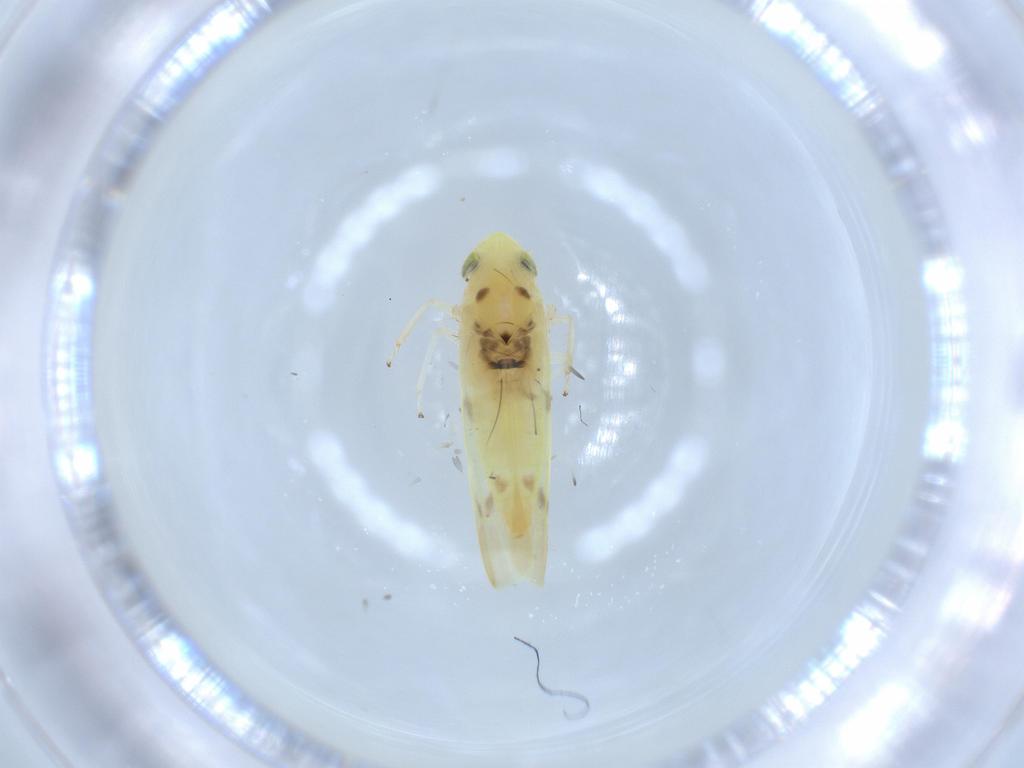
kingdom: Animalia
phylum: Arthropoda
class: Insecta
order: Hemiptera
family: Cicadellidae
